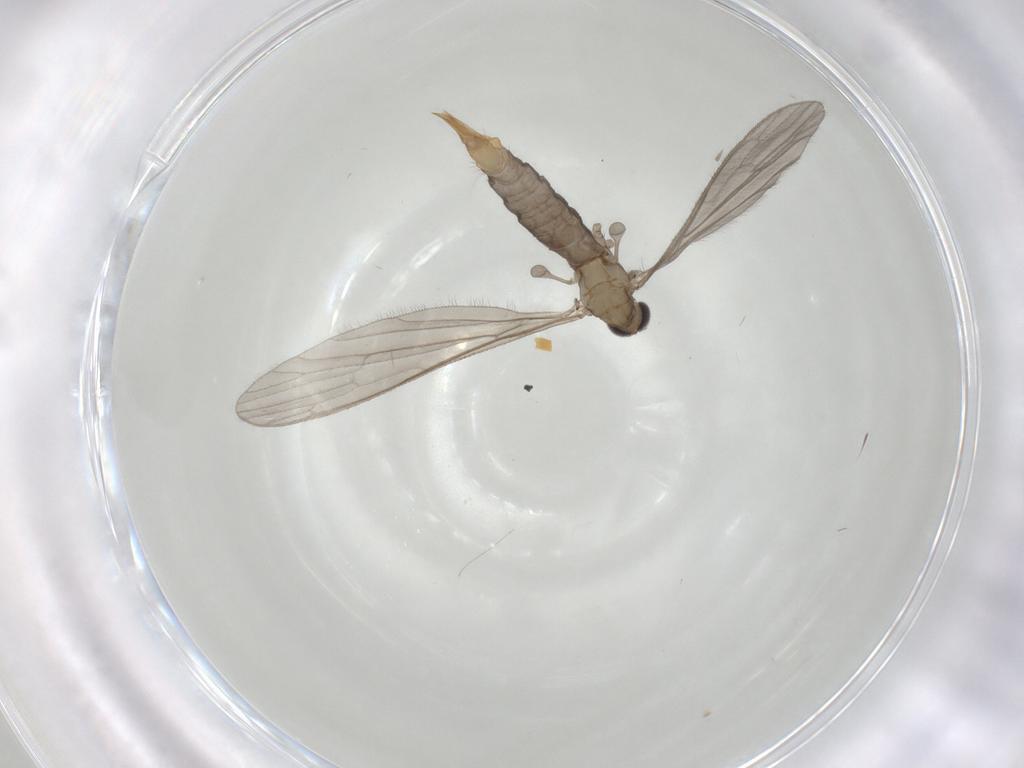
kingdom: Animalia
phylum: Arthropoda
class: Insecta
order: Diptera
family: Limoniidae
